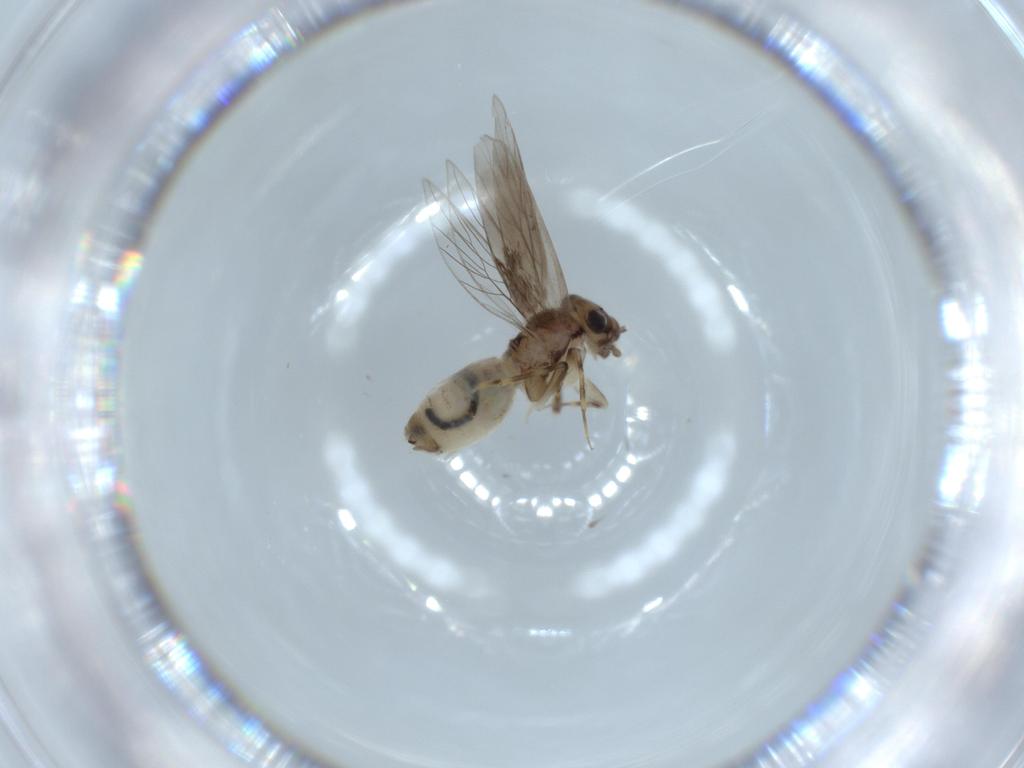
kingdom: Animalia
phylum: Arthropoda
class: Insecta
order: Psocodea
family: Lepidopsocidae
